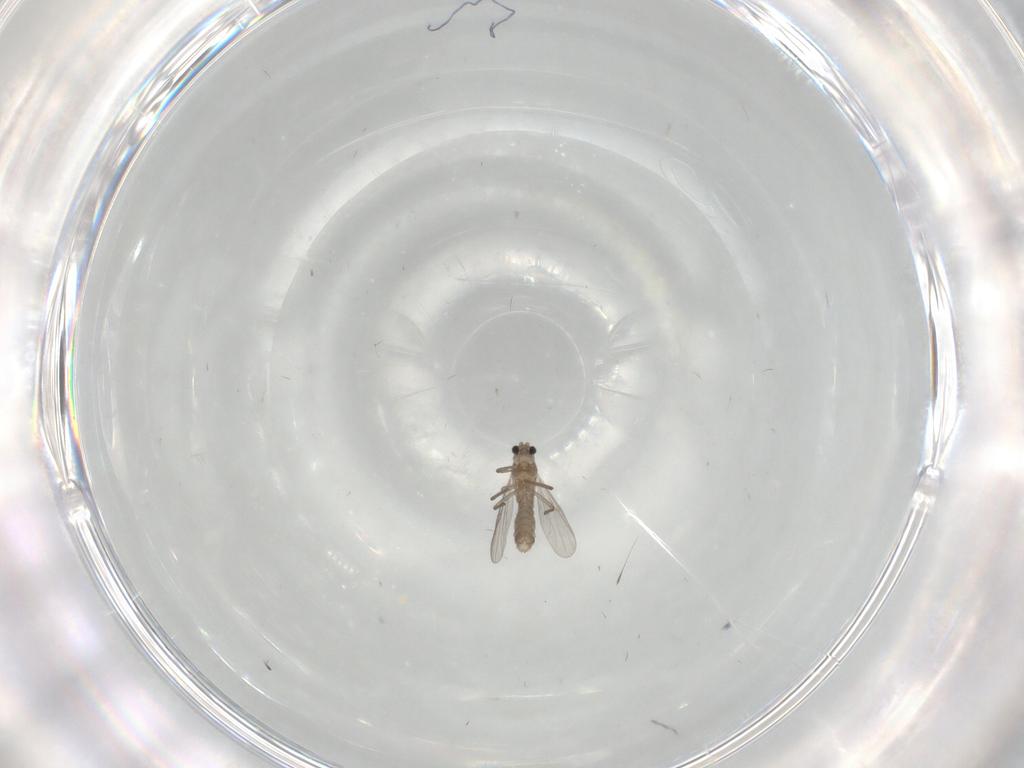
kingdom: Animalia
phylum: Arthropoda
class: Insecta
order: Diptera
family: Chironomidae
